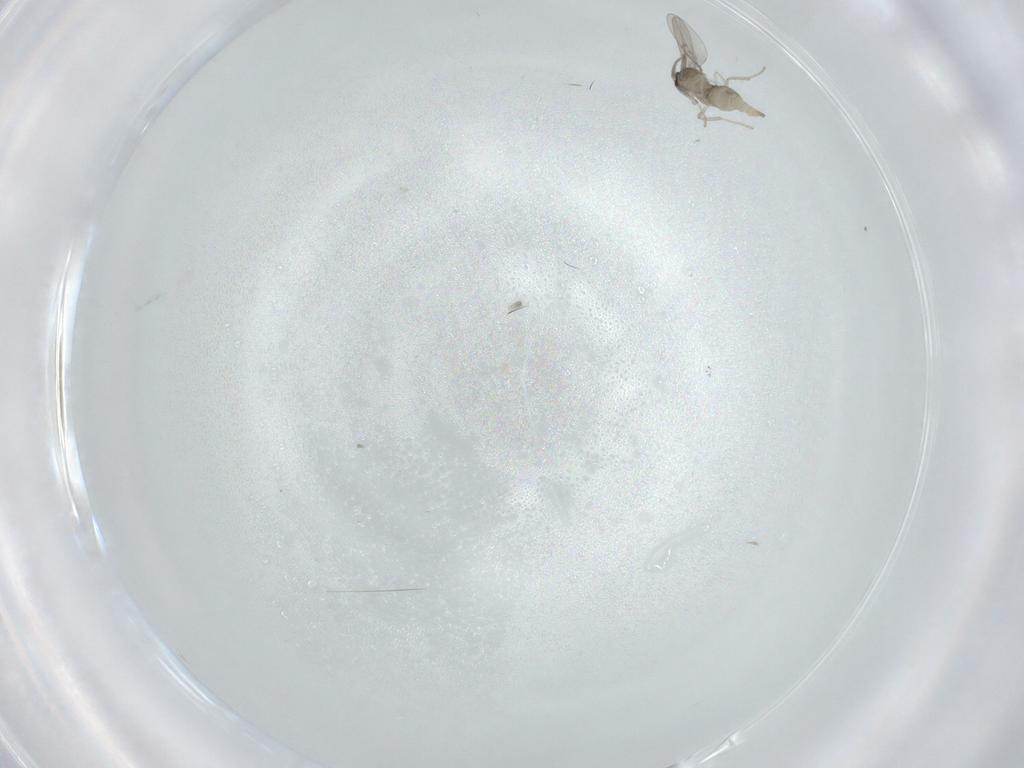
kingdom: Animalia
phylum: Arthropoda
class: Insecta
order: Diptera
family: Cecidomyiidae
